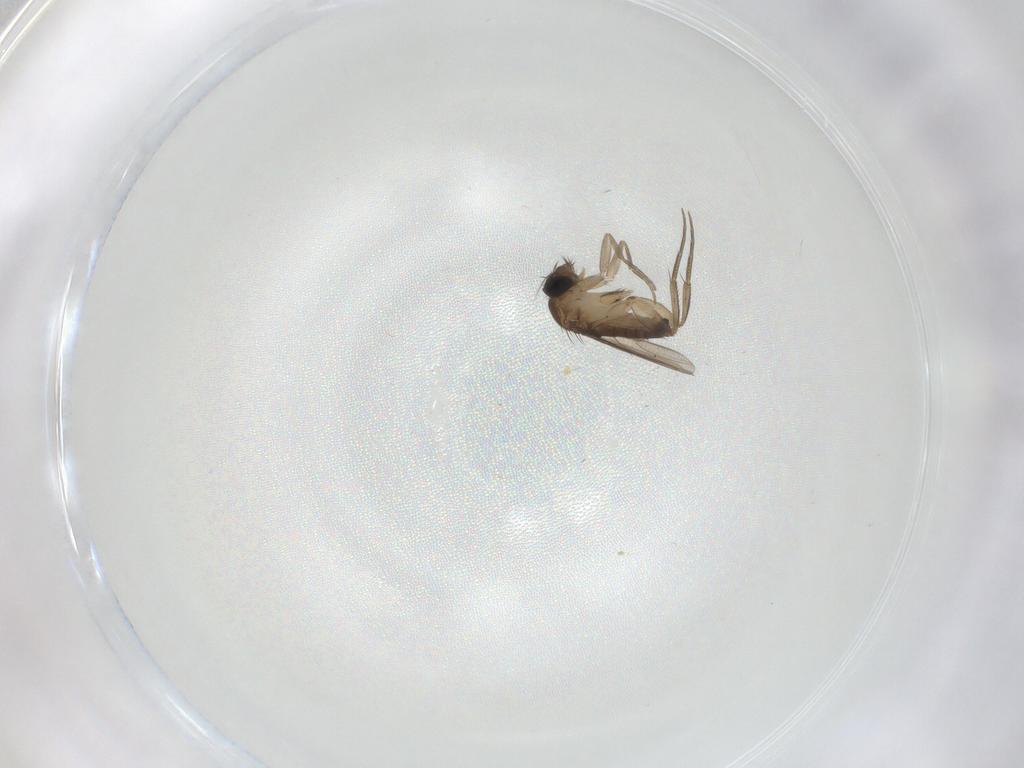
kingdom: Animalia
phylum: Arthropoda
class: Insecta
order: Diptera
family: Phoridae
